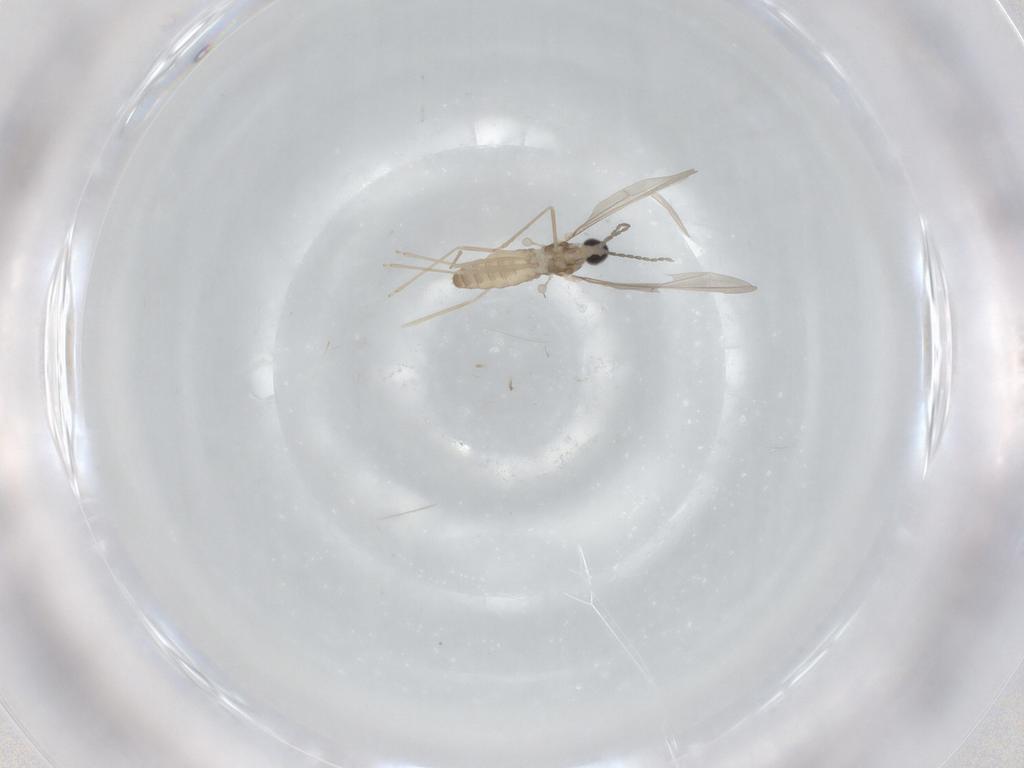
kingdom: Animalia
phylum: Arthropoda
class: Insecta
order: Diptera
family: Cecidomyiidae
